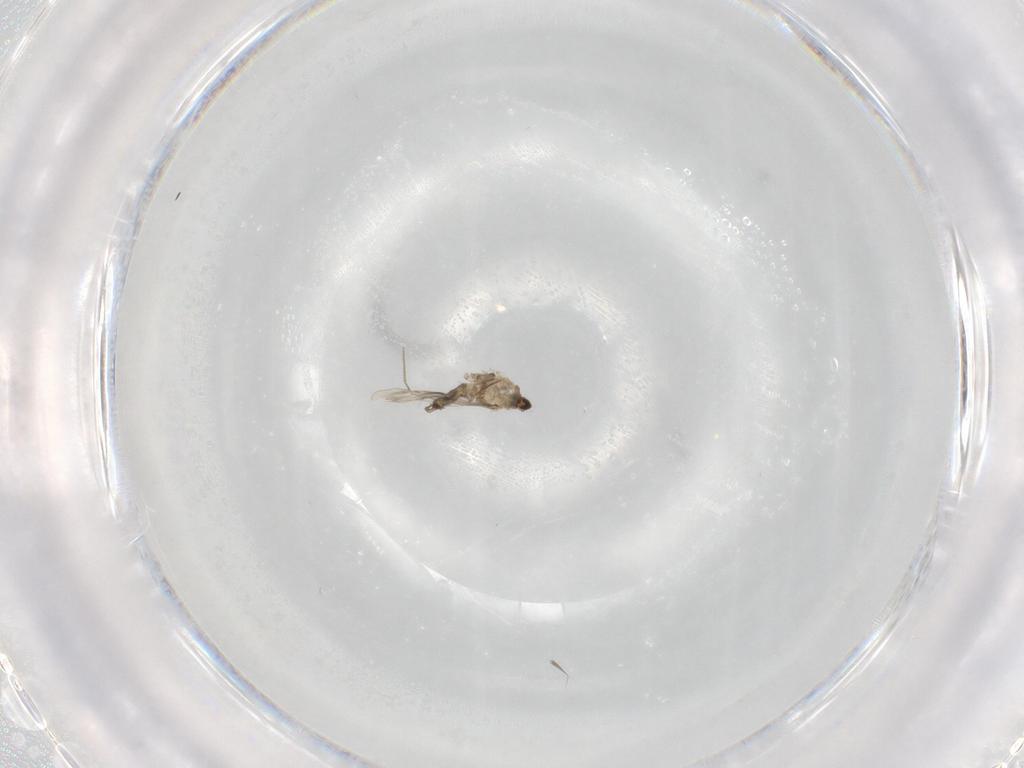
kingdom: Animalia
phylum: Arthropoda
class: Insecta
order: Diptera
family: Cecidomyiidae
